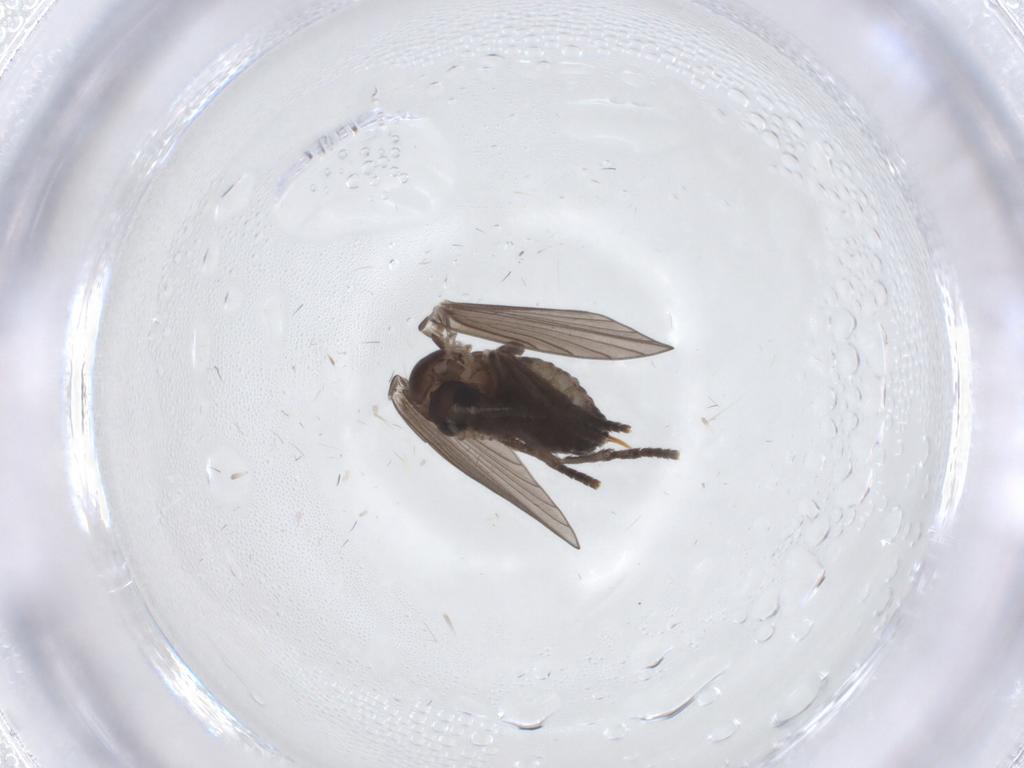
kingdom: Animalia
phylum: Arthropoda
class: Insecta
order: Diptera
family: Psychodidae
